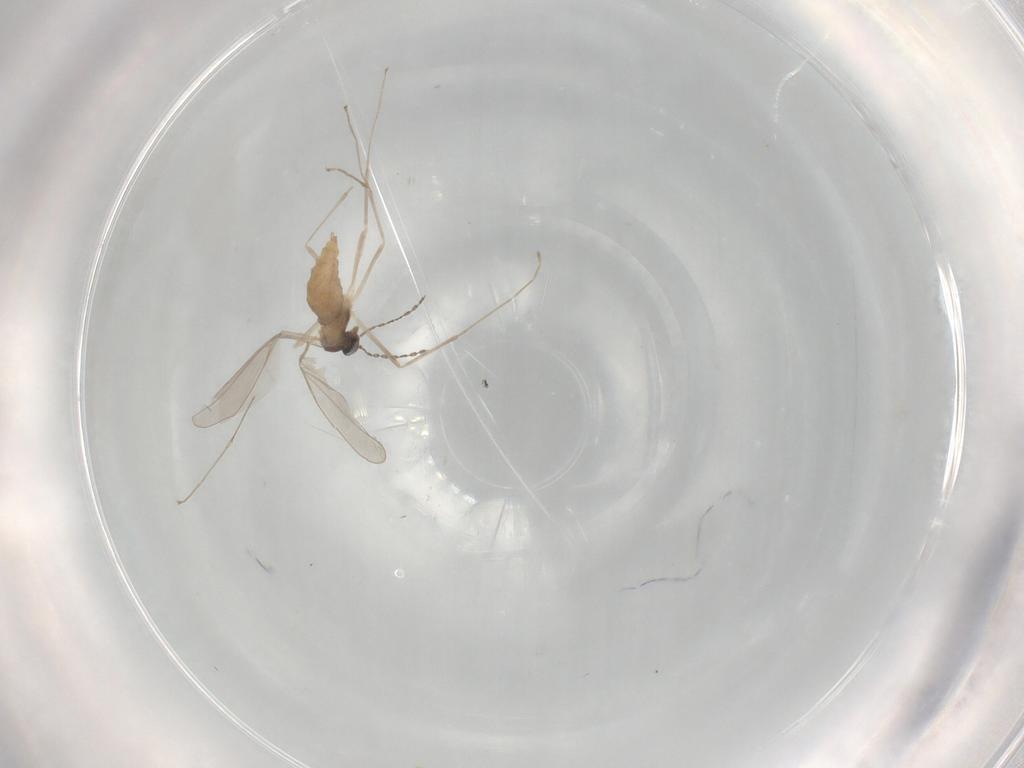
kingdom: Animalia
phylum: Arthropoda
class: Insecta
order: Diptera
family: Cecidomyiidae
